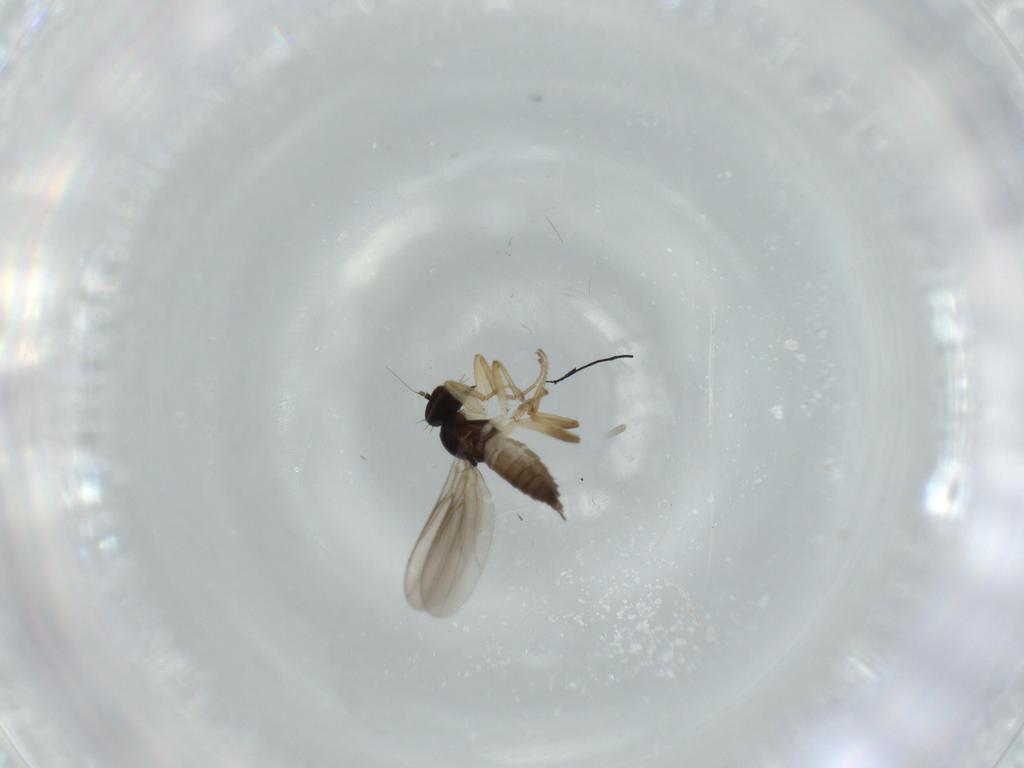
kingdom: Animalia
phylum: Arthropoda
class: Insecta
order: Diptera
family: Hybotidae
